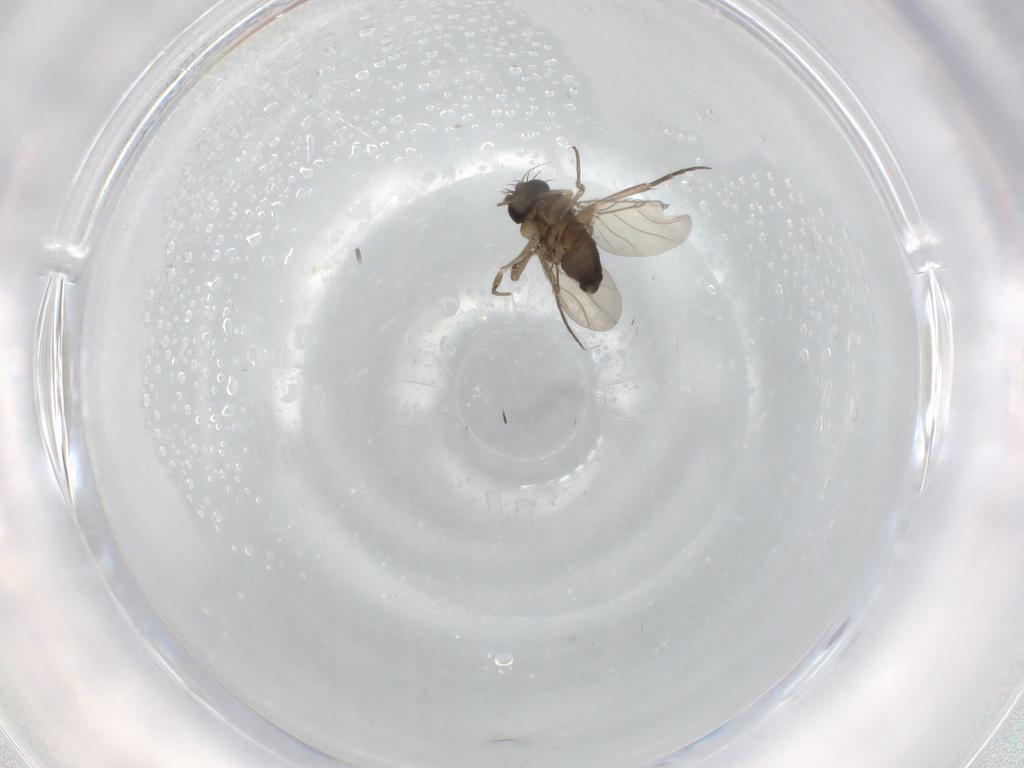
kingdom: Animalia
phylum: Arthropoda
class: Insecta
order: Diptera
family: Phoridae
